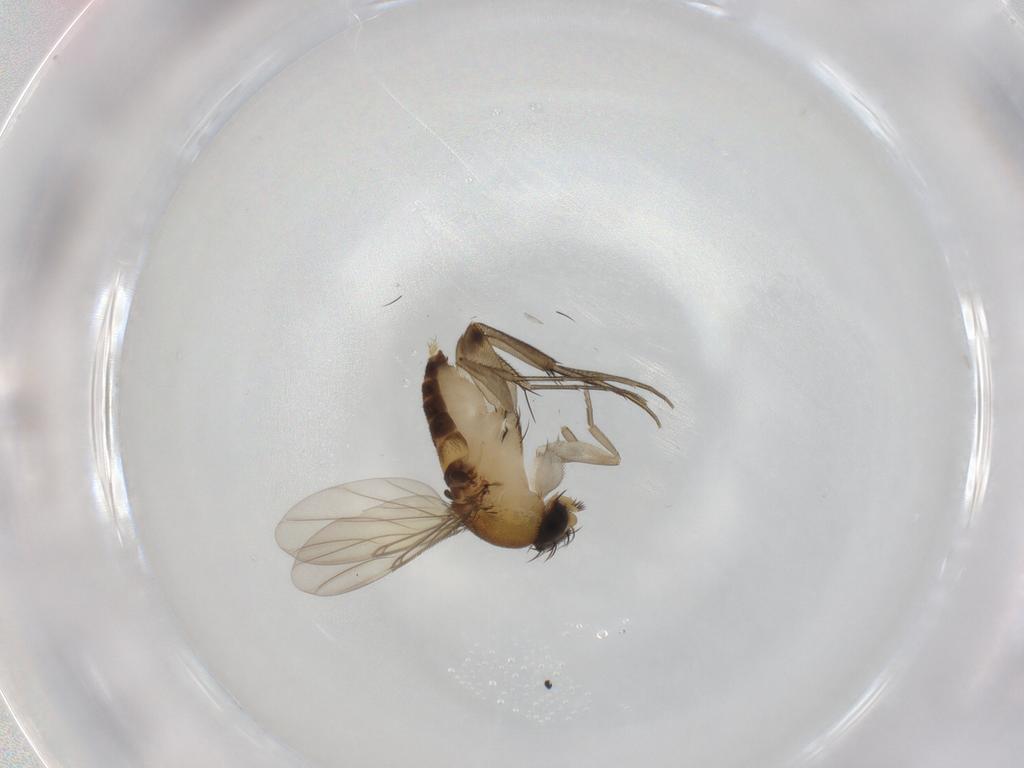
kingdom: Animalia
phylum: Arthropoda
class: Insecta
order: Diptera
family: Phoridae
